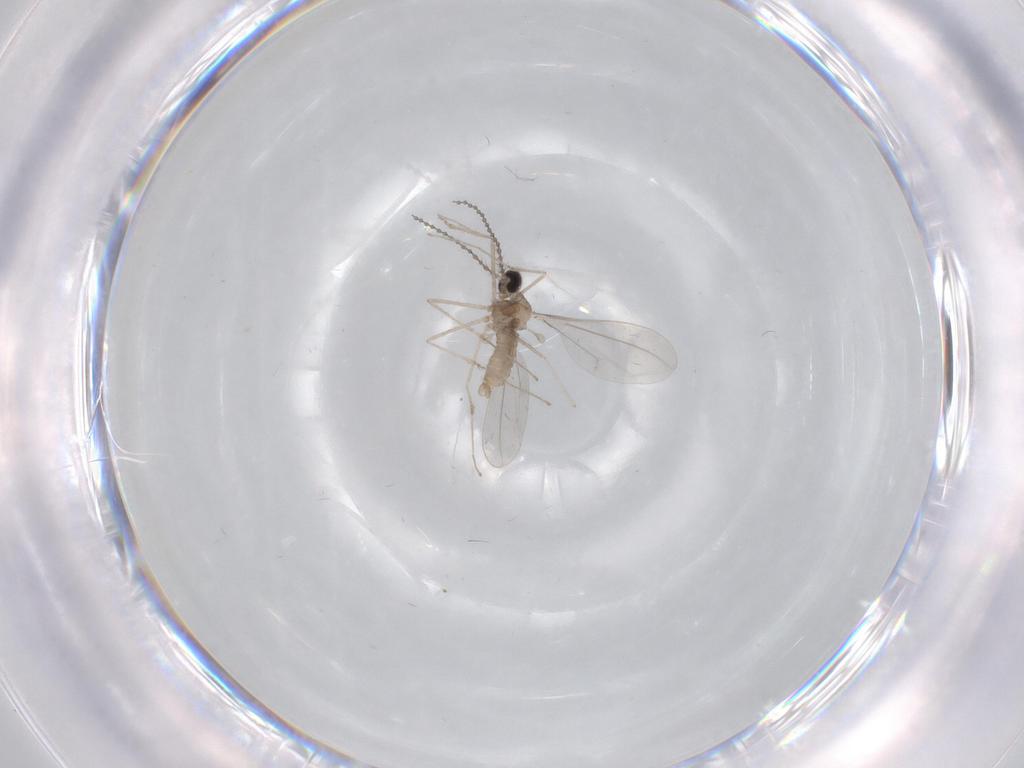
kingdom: Animalia
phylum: Arthropoda
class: Insecta
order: Diptera
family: Cecidomyiidae
